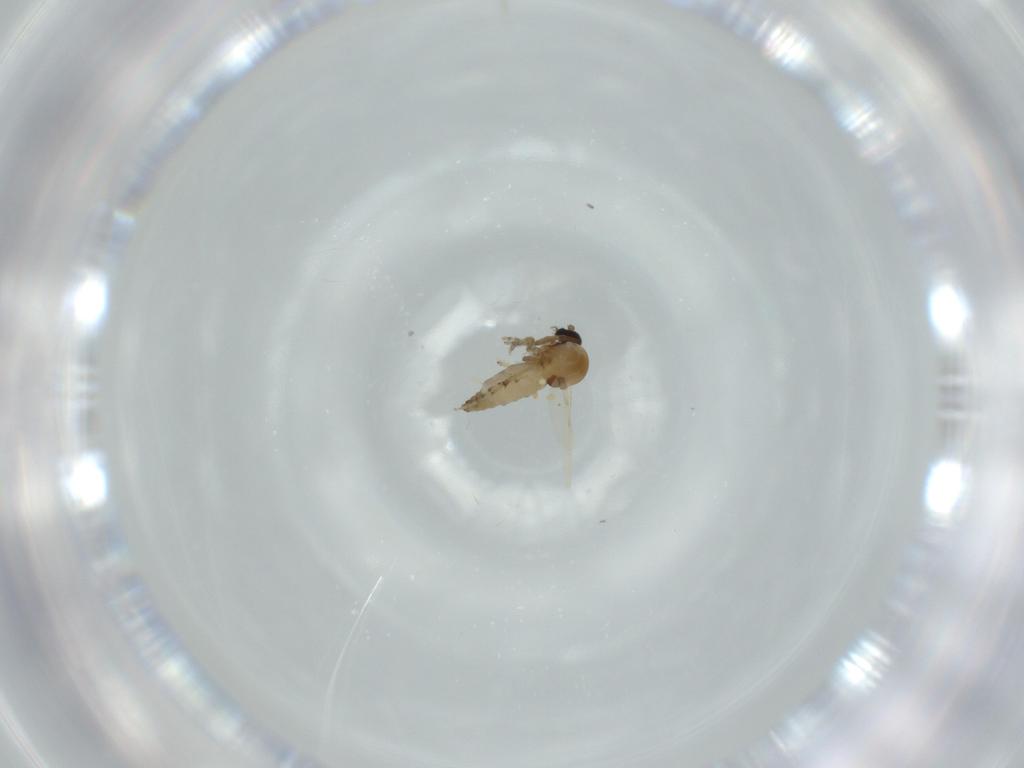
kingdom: Animalia
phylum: Arthropoda
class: Insecta
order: Diptera
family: Ceratopogonidae
